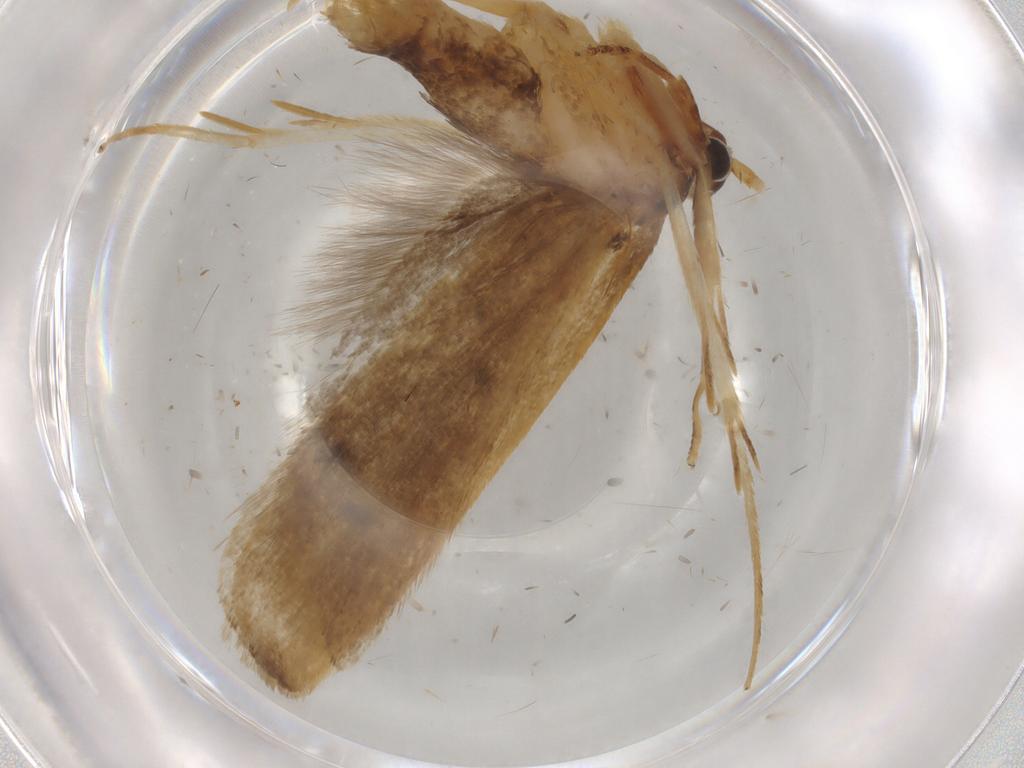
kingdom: Animalia
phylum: Arthropoda
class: Insecta
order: Lepidoptera
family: Lecithoceridae
